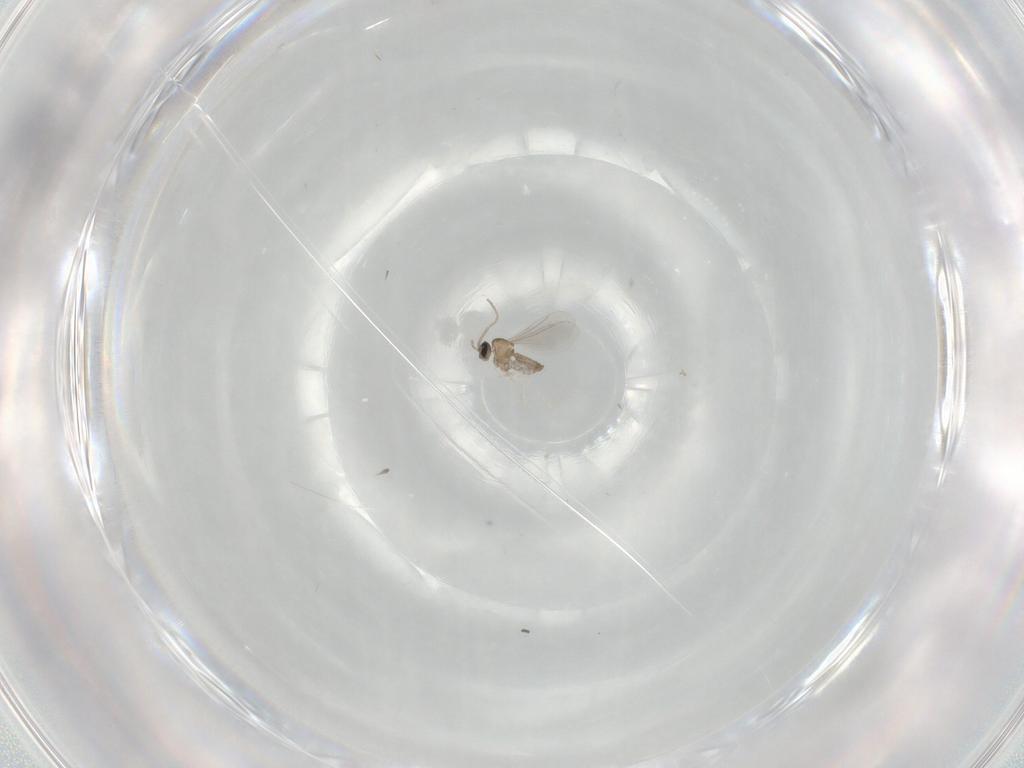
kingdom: Animalia
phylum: Arthropoda
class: Insecta
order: Diptera
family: Cecidomyiidae
